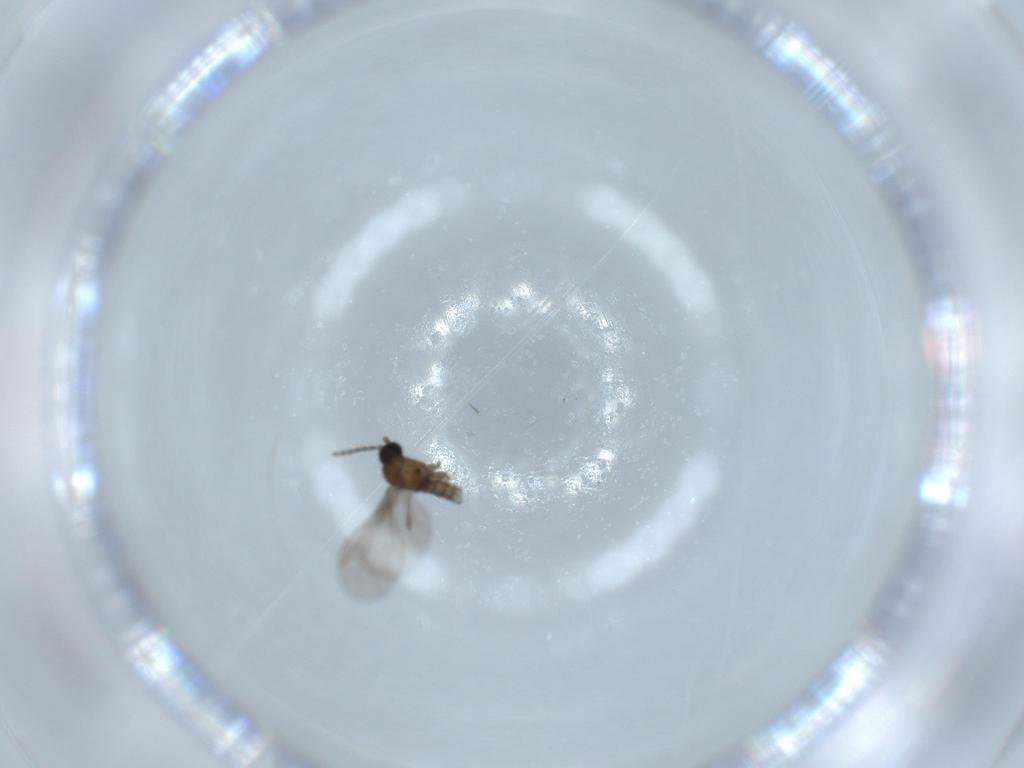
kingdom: Animalia
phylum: Arthropoda
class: Insecta
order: Diptera
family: Sciaridae
